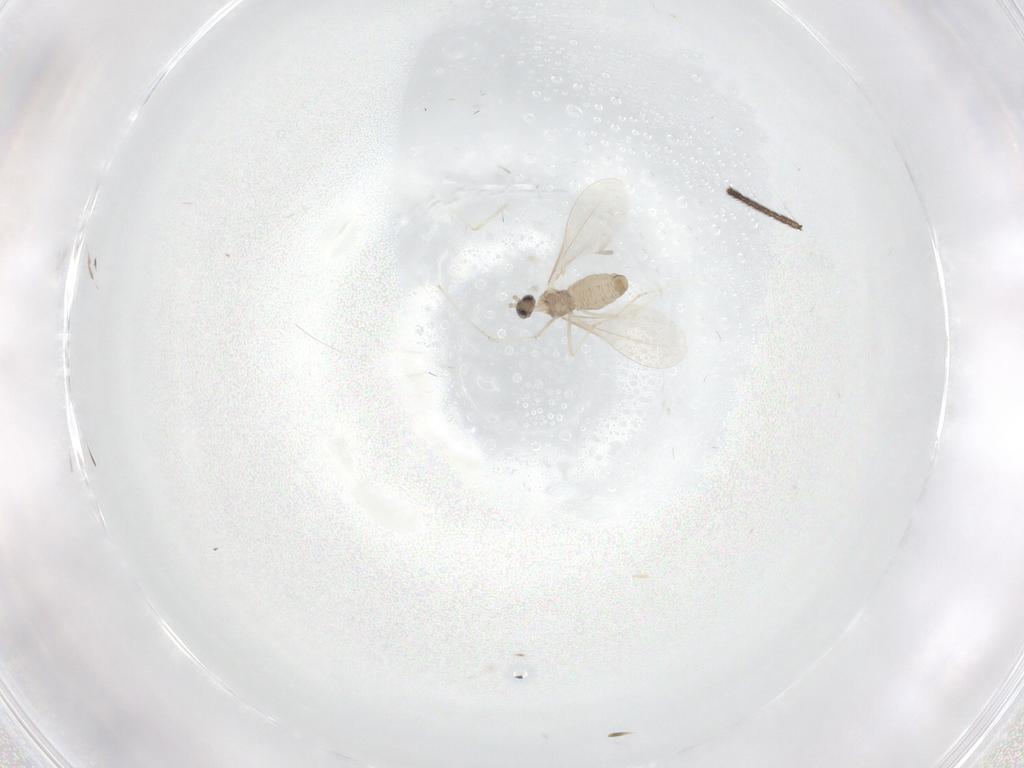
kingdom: Animalia
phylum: Arthropoda
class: Insecta
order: Diptera
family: Cecidomyiidae
